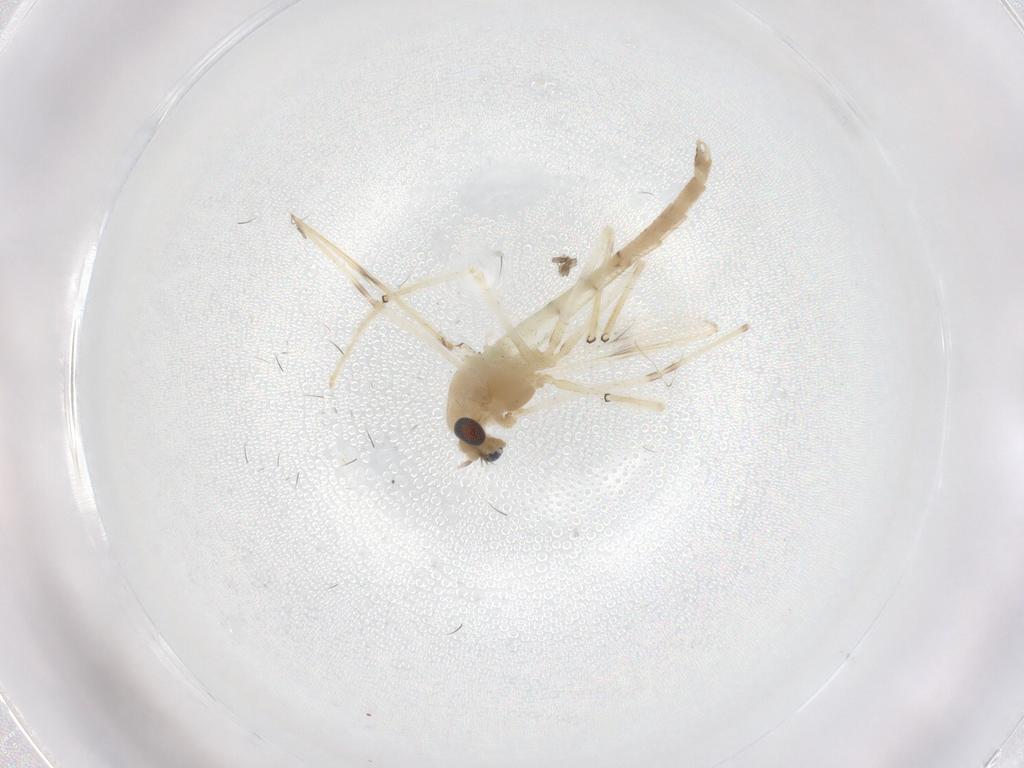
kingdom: Animalia
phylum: Arthropoda
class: Insecta
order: Diptera
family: Chironomidae
